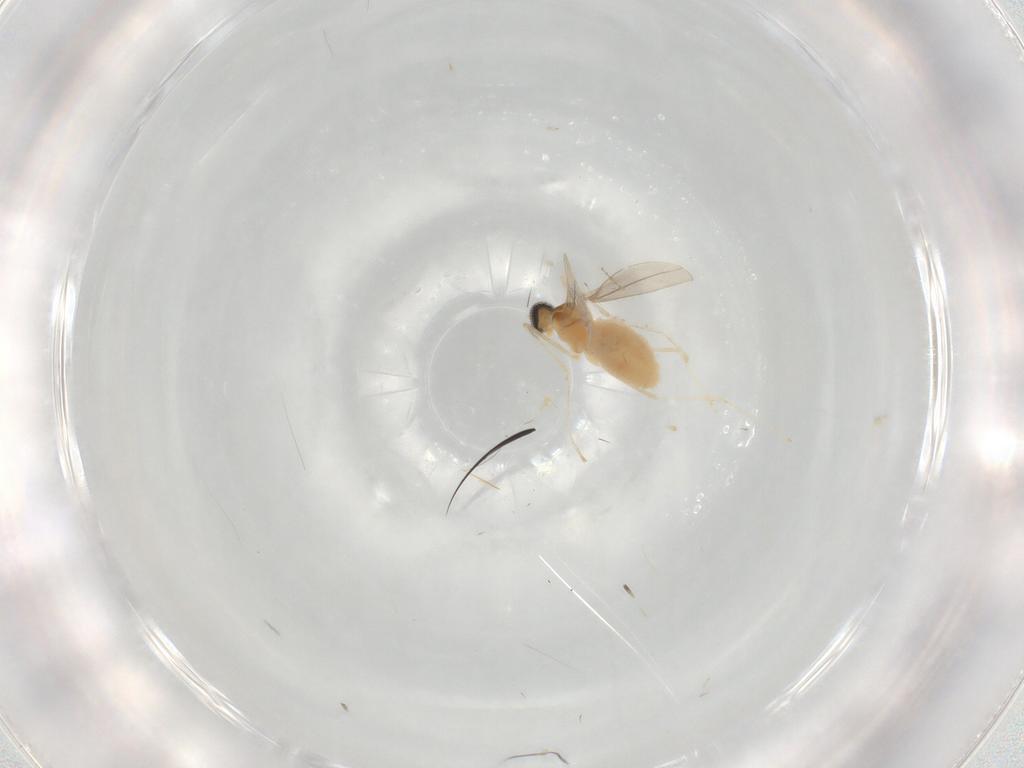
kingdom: Animalia
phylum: Arthropoda
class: Insecta
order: Diptera
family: Cecidomyiidae
